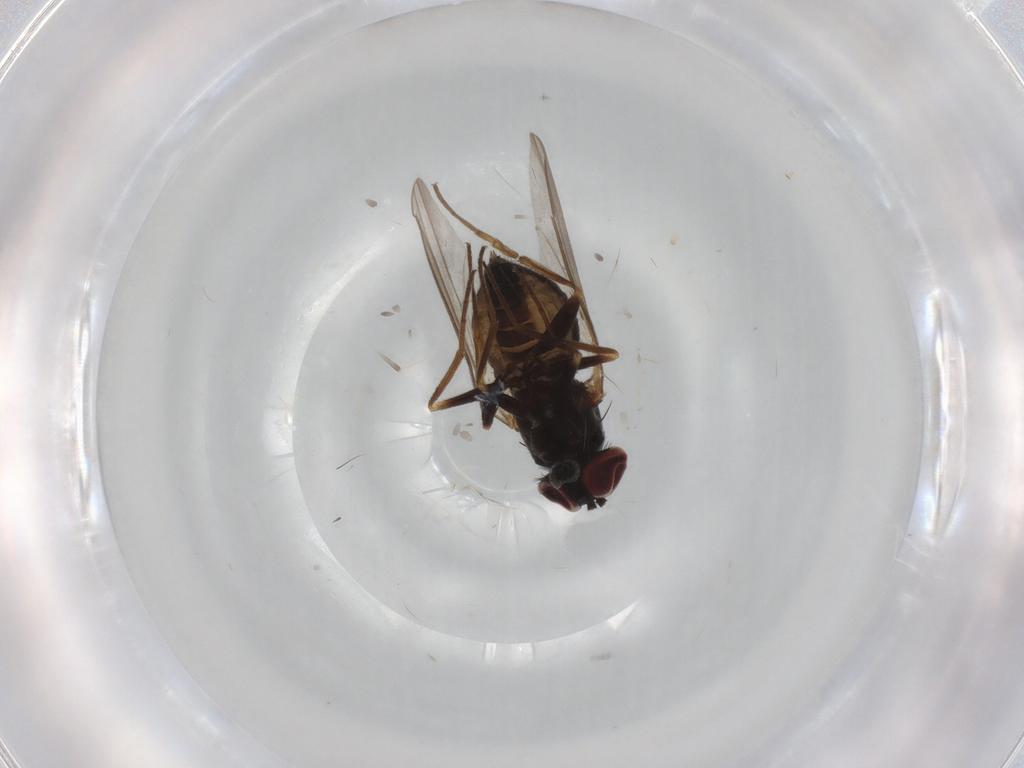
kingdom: Animalia
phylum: Arthropoda
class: Insecta
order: Diptera
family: Dolichopodidae
